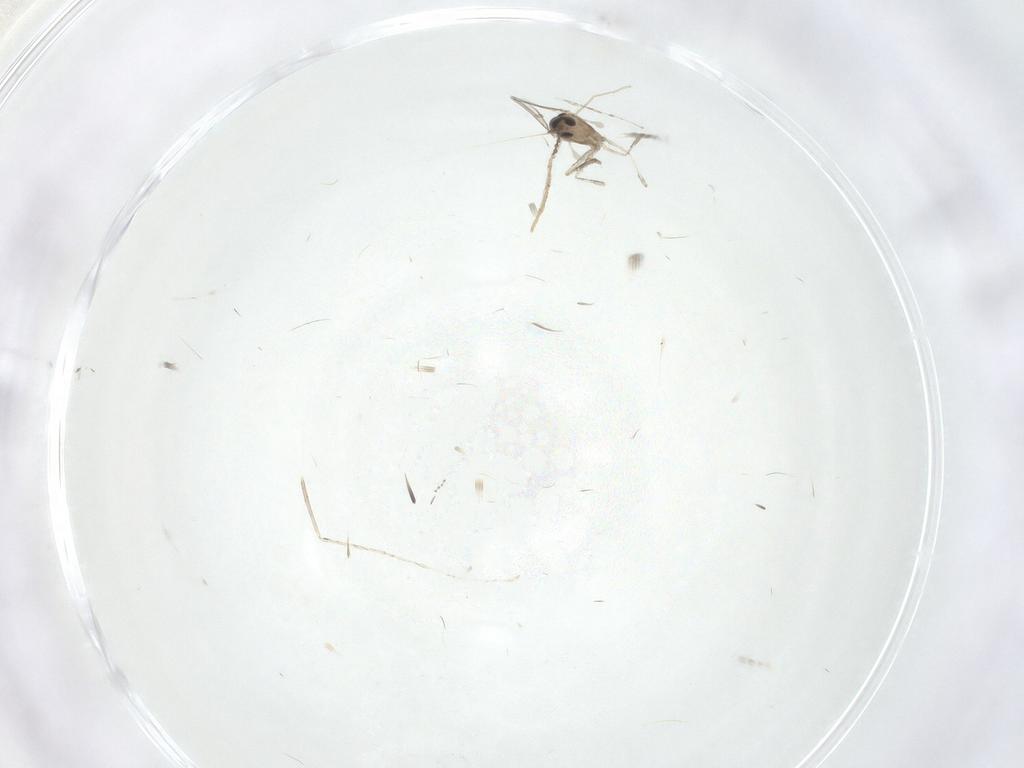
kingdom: Animalia
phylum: Arthropoda
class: Insecta
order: Diptera
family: Cecidomyiidae
